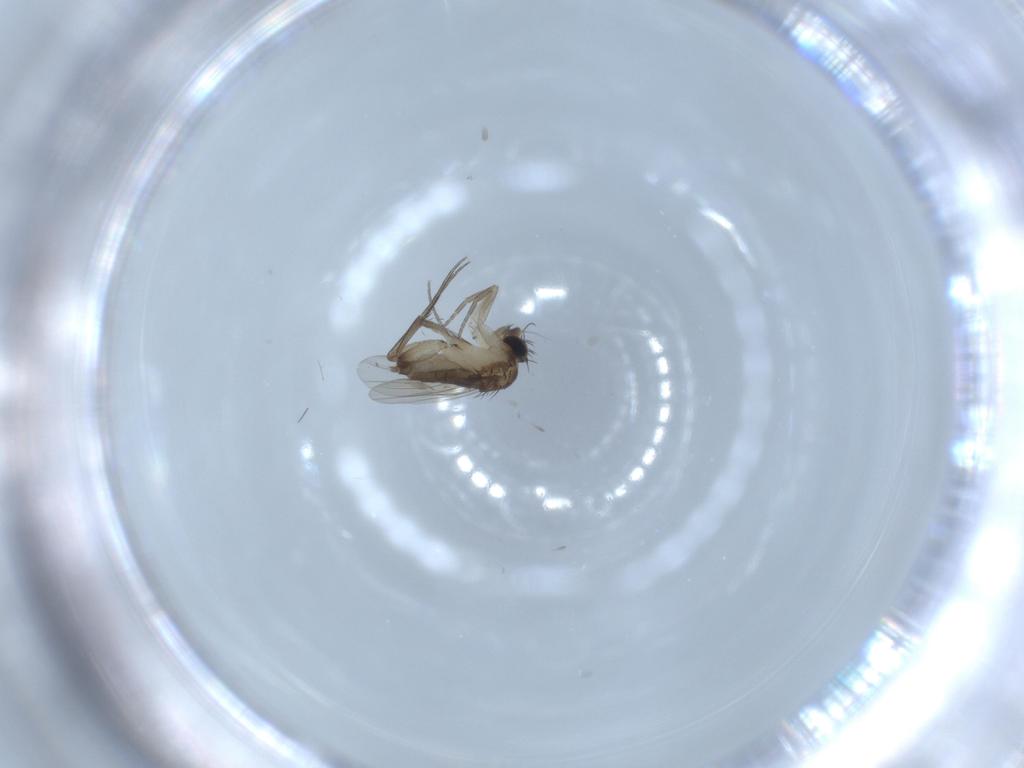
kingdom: Animalia
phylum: Arthropoda
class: Insecta
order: Diptera
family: Phoridae
